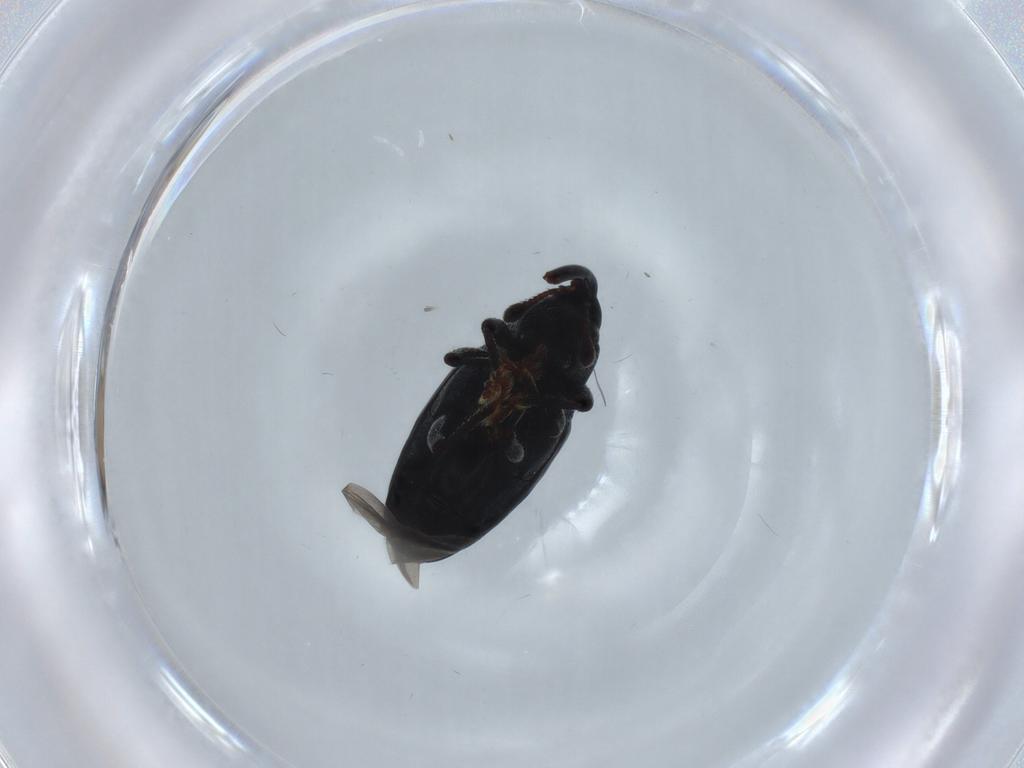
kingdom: Animalia
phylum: Arthropoda
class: Insecta
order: Coleoptera
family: Curculionidae
